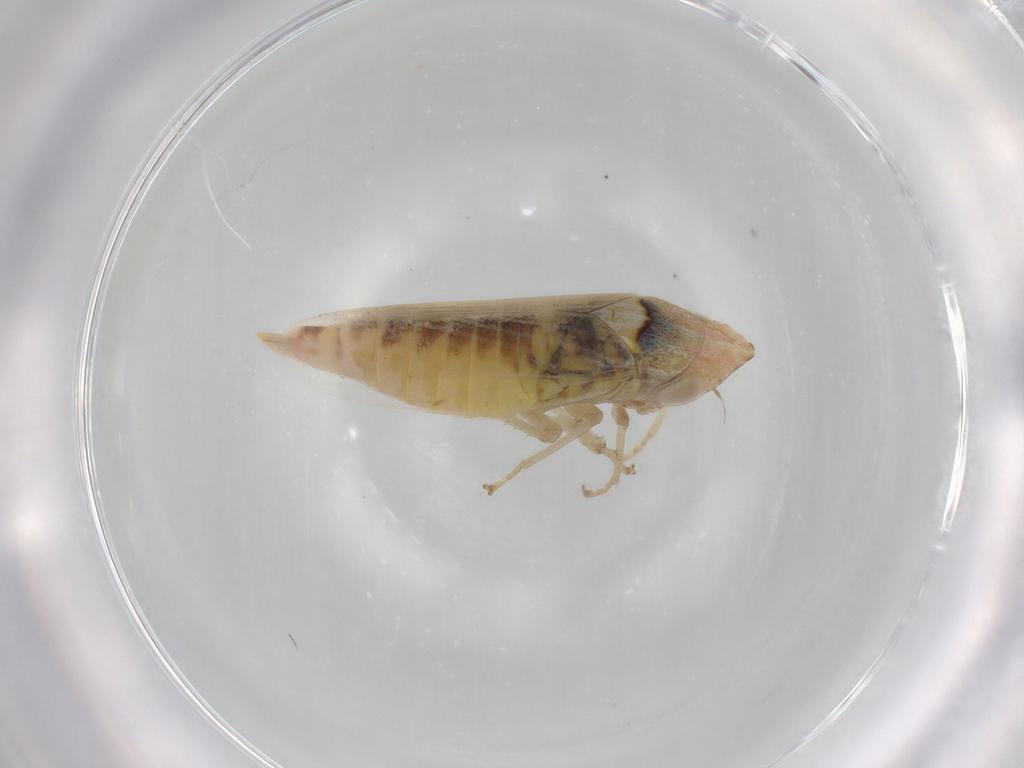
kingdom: Animalia
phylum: Arthropoda
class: Insecta
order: Hemiptera
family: Cicadellidae
